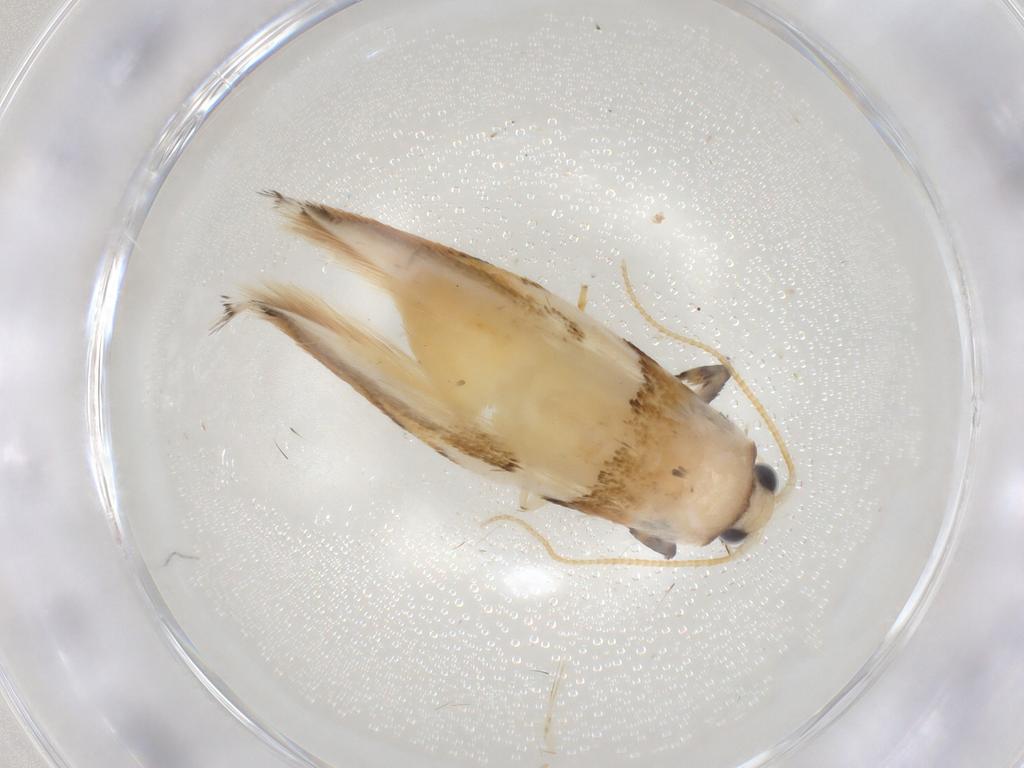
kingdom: Animalia
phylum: Arthropoda
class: Insecta
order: Lepidoptera
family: Tineidae
